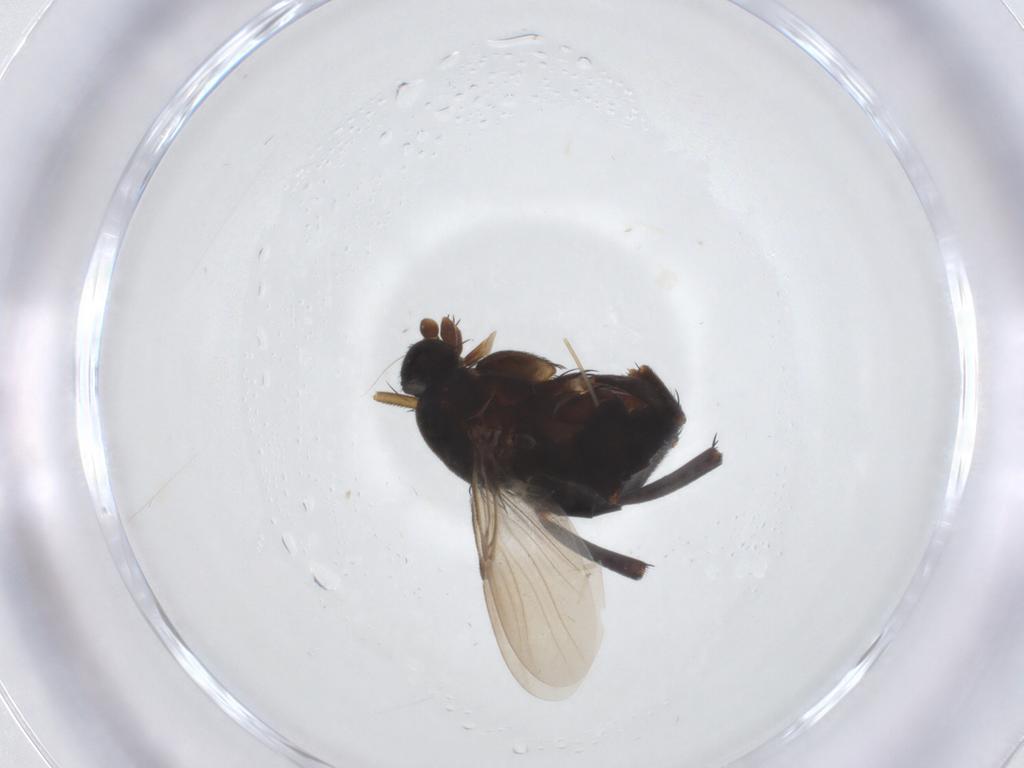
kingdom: Animalia
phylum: Arthropoda
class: Insecta
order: Diptera
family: Phoridae
